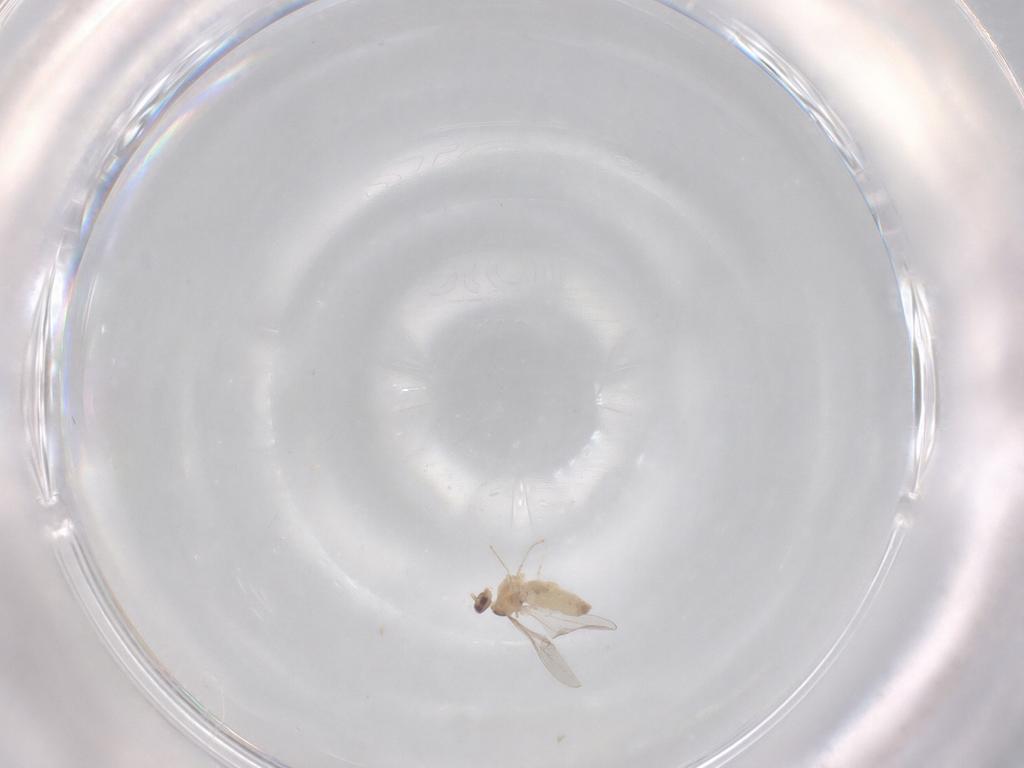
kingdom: Animalia
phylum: Arthropoda
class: Insecta
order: Diptera
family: Sciaridae
